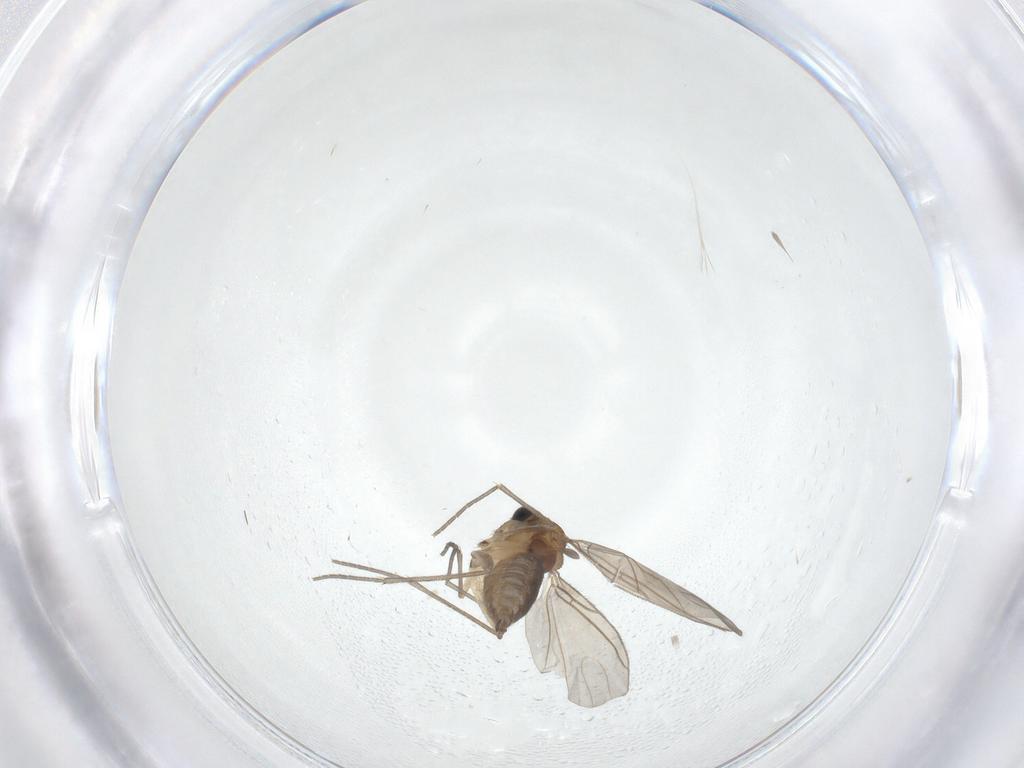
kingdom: Animalia
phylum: Arthropoda
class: Insecta
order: Diptera
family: Sciaridae
